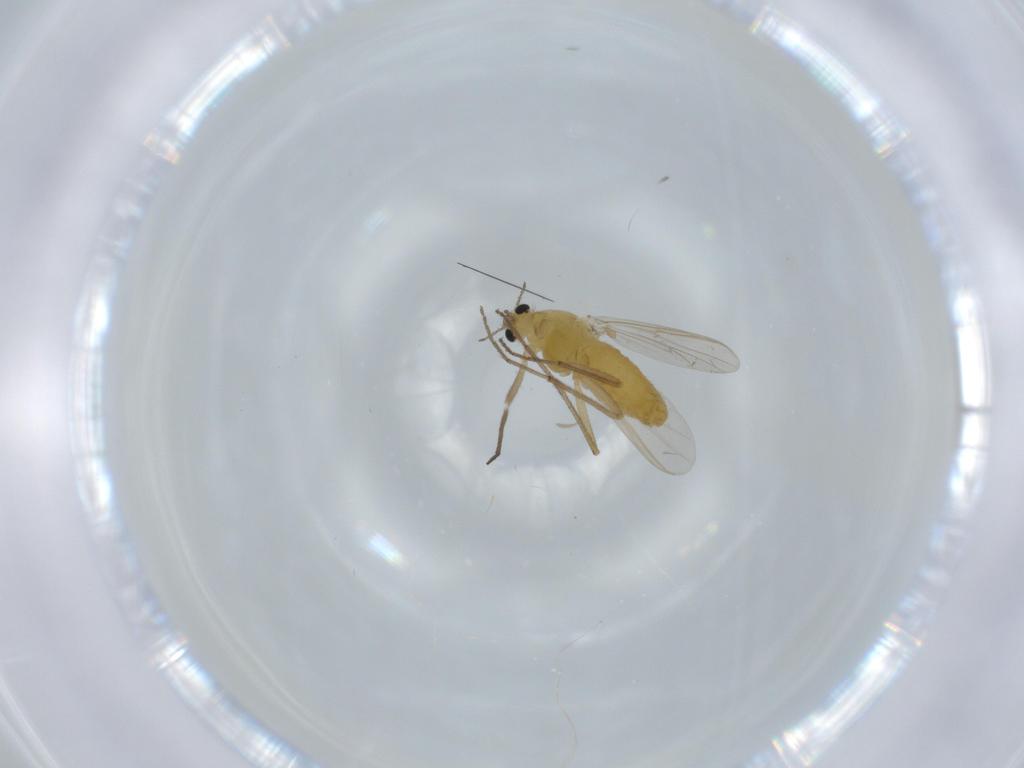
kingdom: Animalia
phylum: Arthropoda
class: Insecta
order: Diptera
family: Chironomidae
